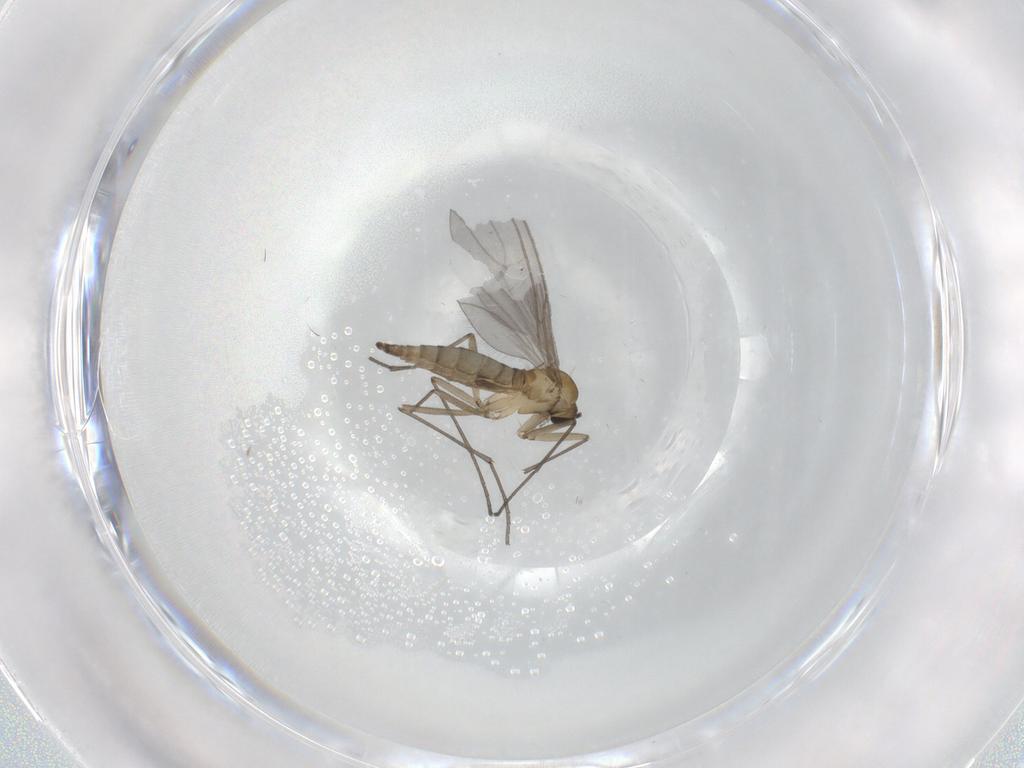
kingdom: Animalia
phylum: Arthropoda
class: Insecta
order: Diptera
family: Sciaridae
